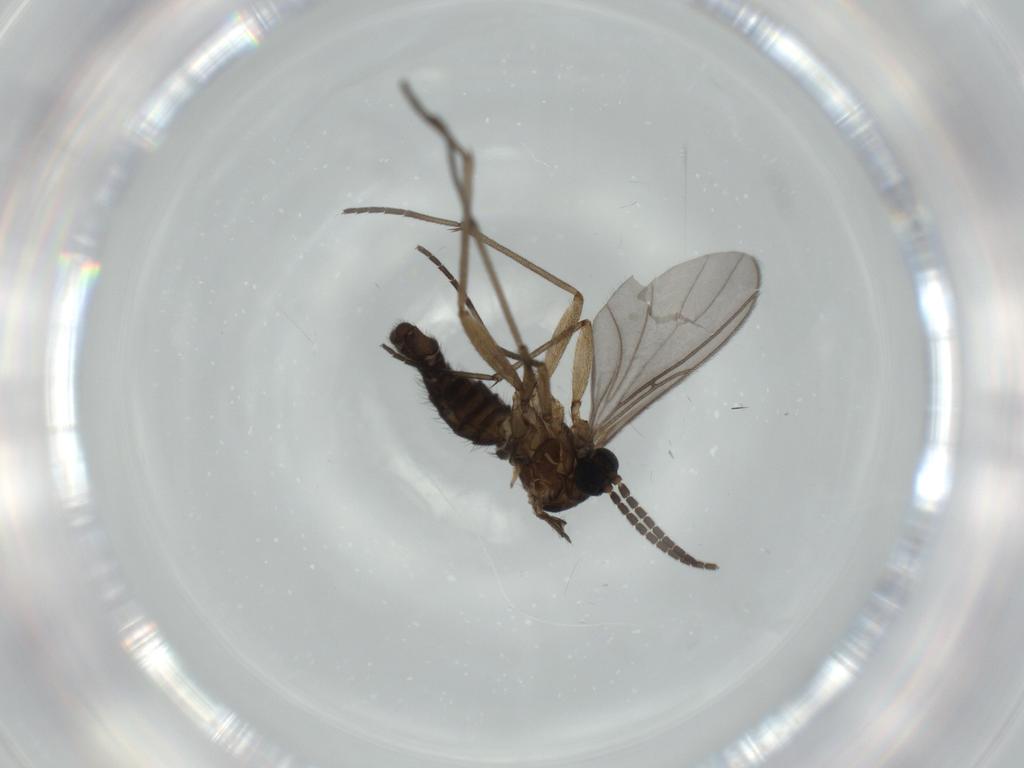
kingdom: Animalia
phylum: Arthropoda
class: Insecta
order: Diptera
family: Sciaridae
